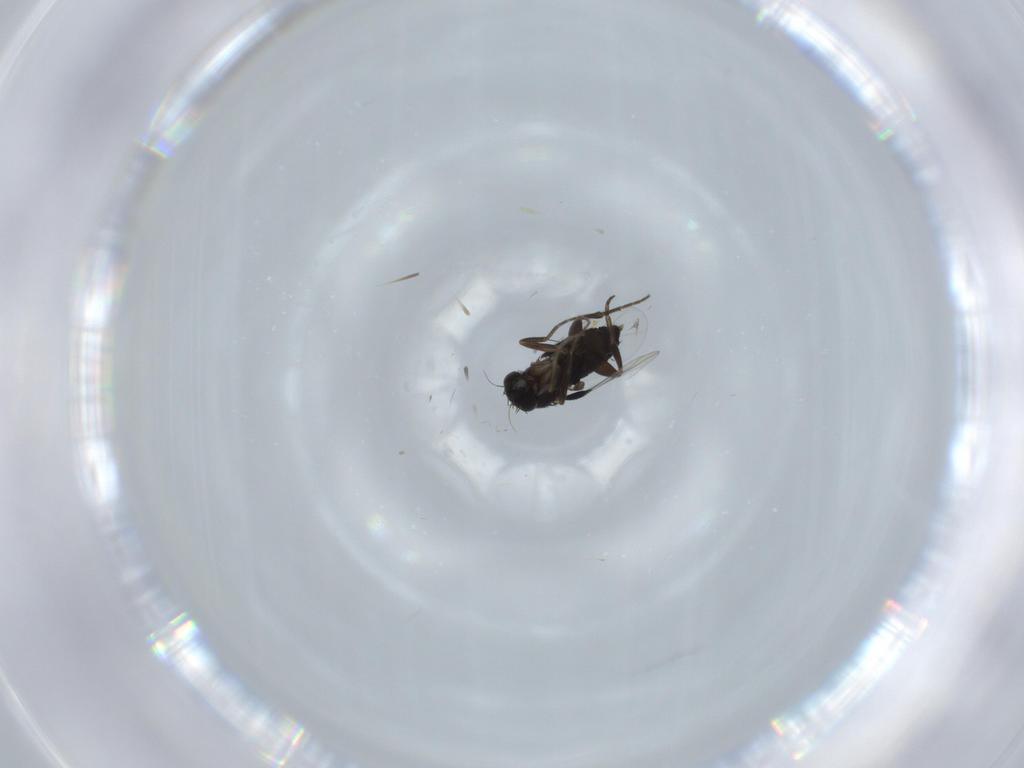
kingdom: Animalia
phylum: Arthropoda
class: Insecta
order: Diptera
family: Phoridae
